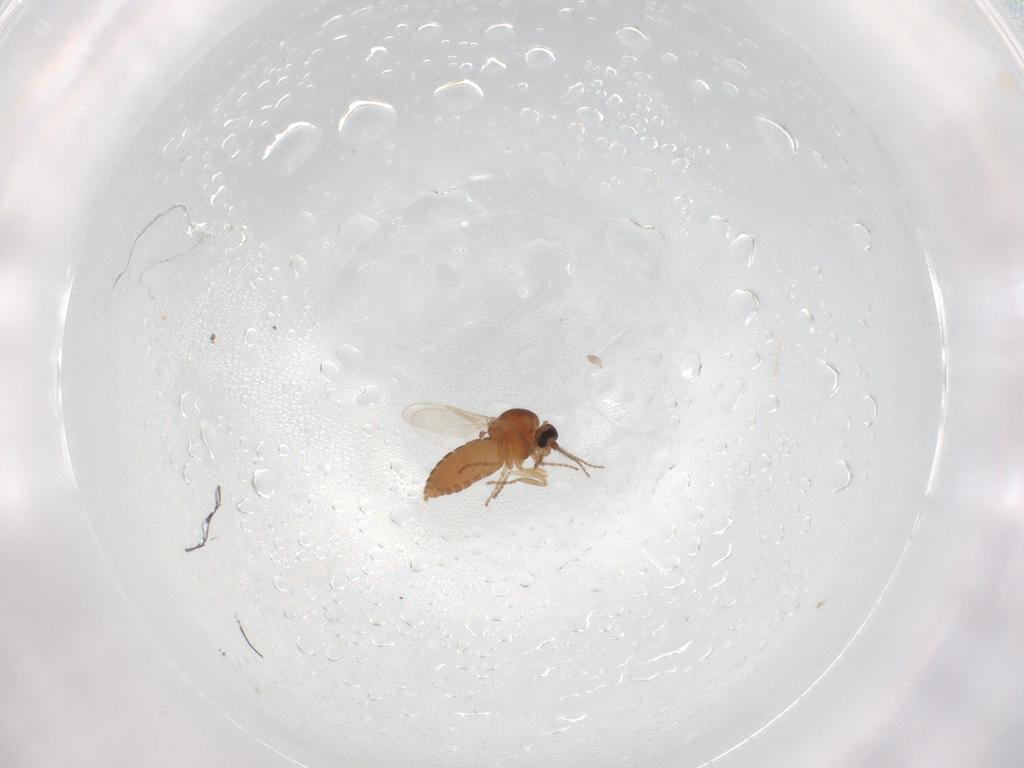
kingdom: Animalia
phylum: Arthropoda
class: Insecta
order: Diptera
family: Ceratopogonidae
